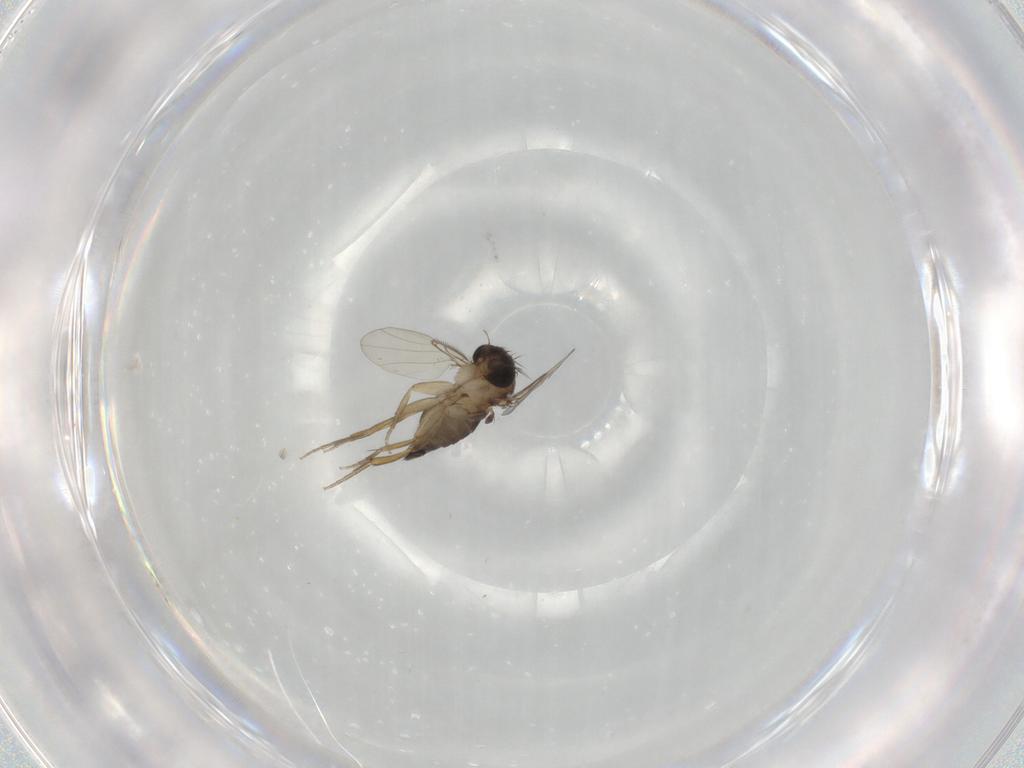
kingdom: Animalia
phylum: Arthropoda
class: Insecta
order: Diptera
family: Phoridae
